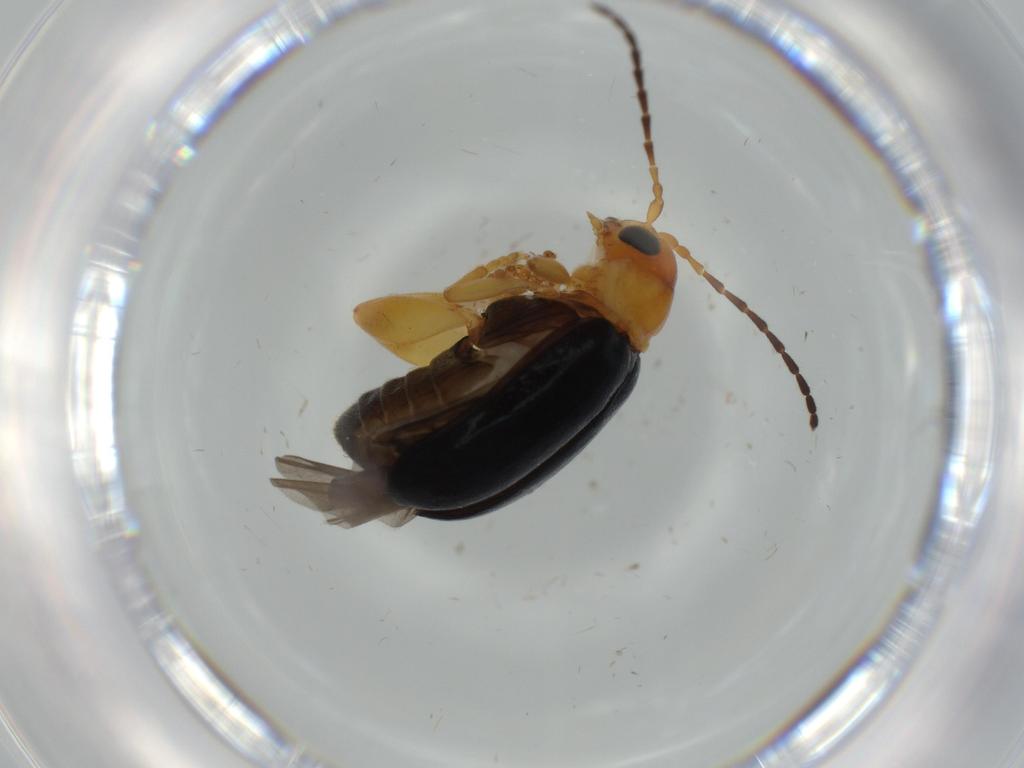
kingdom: Animalia
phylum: Arthropoda
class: Insecta
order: Coleoptera
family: Chrysomelidae
